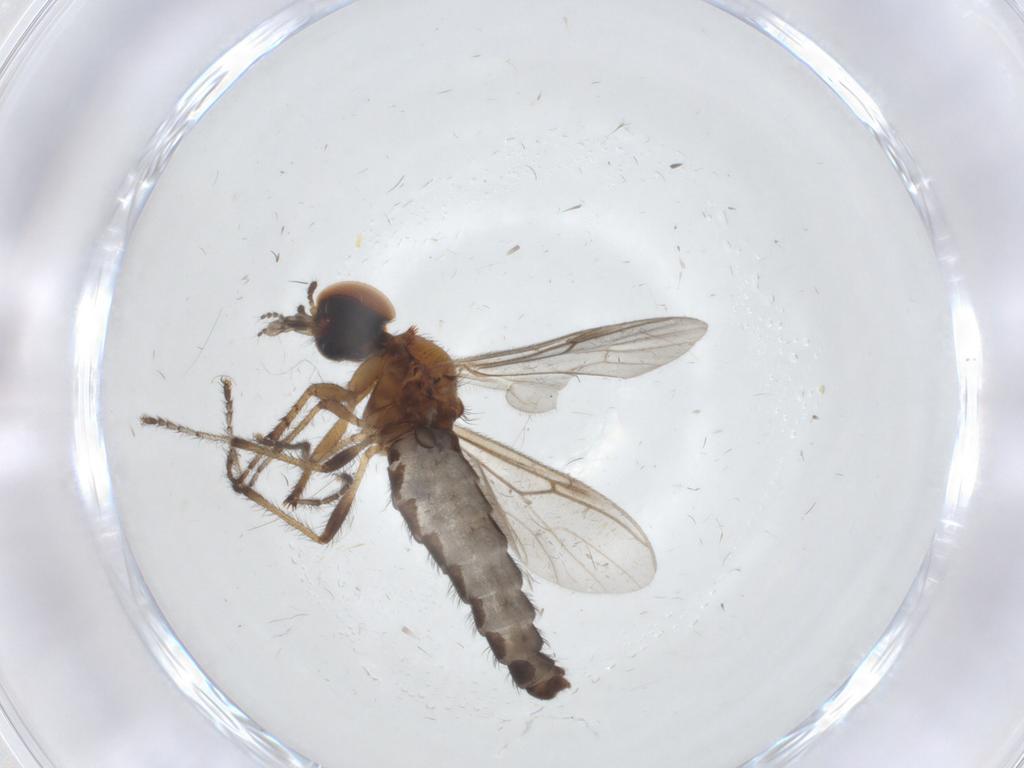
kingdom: Animalia
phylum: Arthropoda
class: Insecta
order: Diptera
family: Bibionidae
